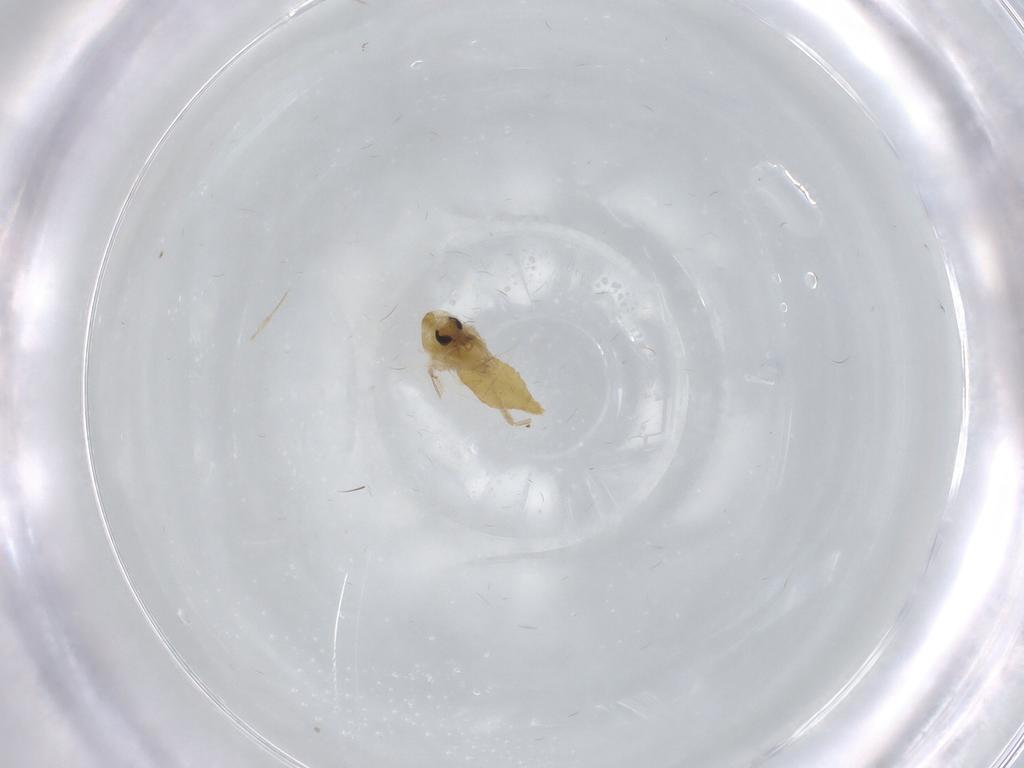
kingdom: Animalia
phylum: Arthropoda
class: Insecta
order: Diptera
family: Chironomidae
